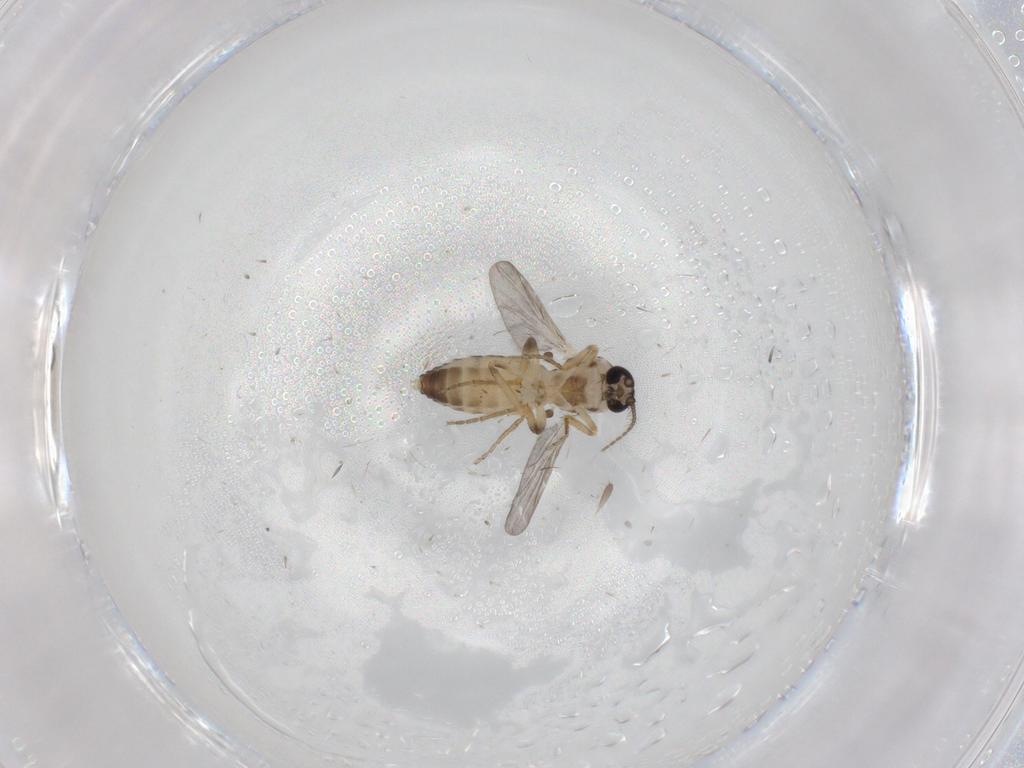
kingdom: Animalia
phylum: Arthropoda
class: Insecta
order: Diptera
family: Ceratopogonidae
